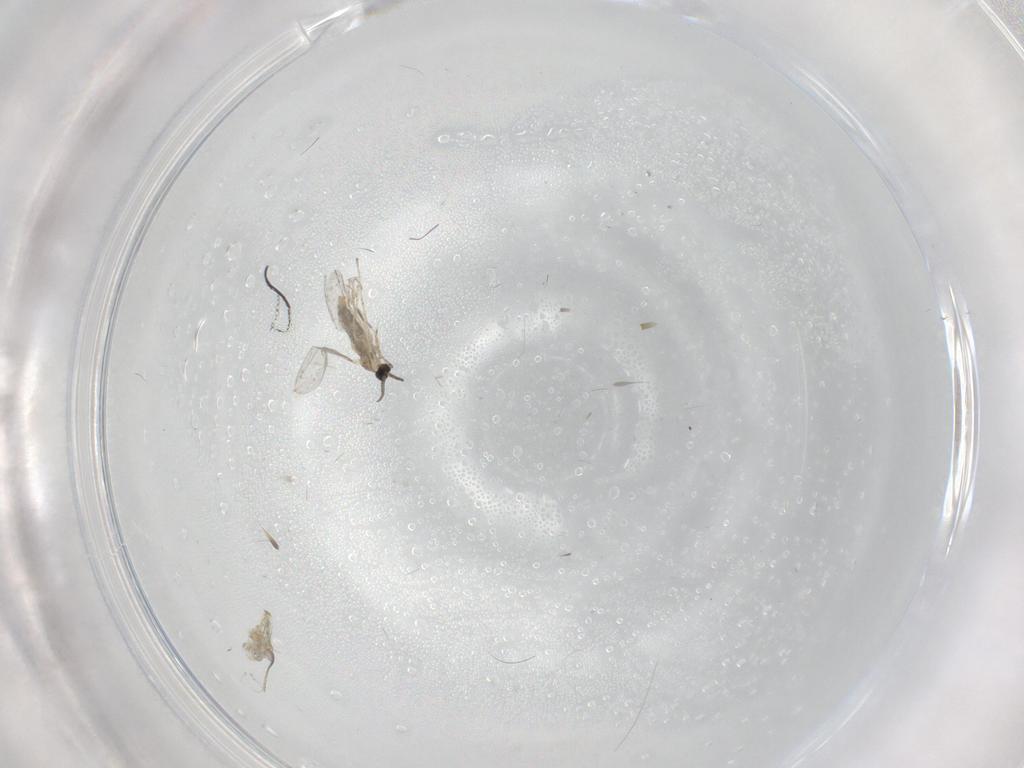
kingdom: Animalia
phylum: Arthropoda
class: Insecta
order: Diptera
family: Cecidomyiidae
